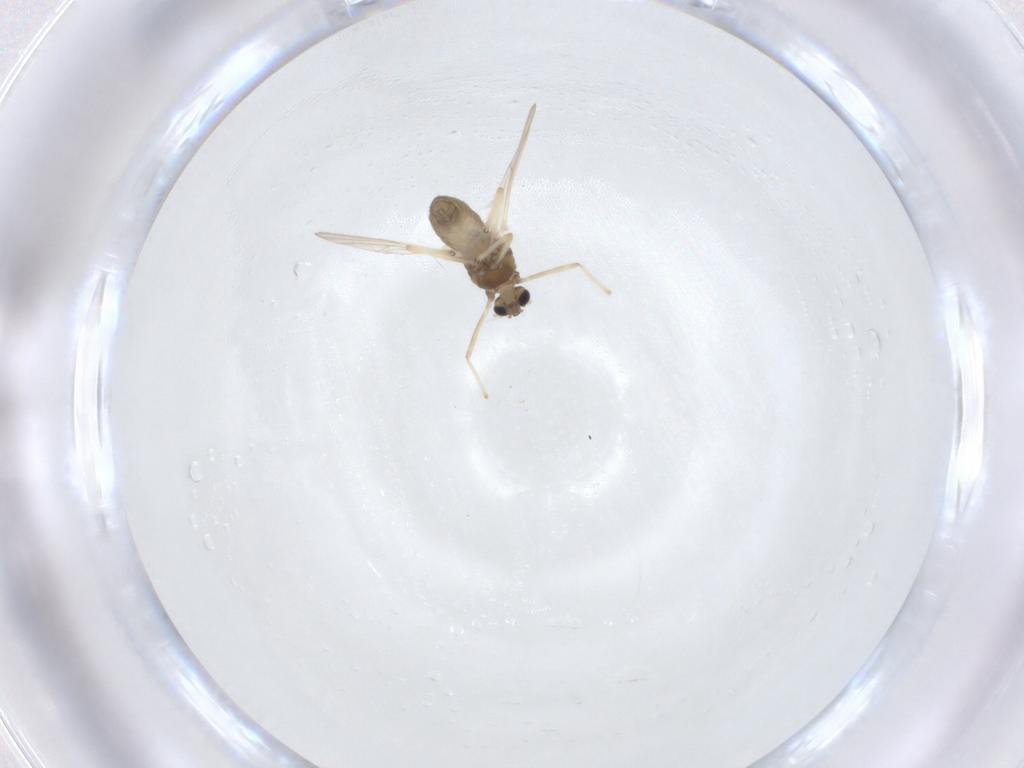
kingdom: Animalia
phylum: Arthropoda
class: Insecta
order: Diptera
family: Chironomidae
